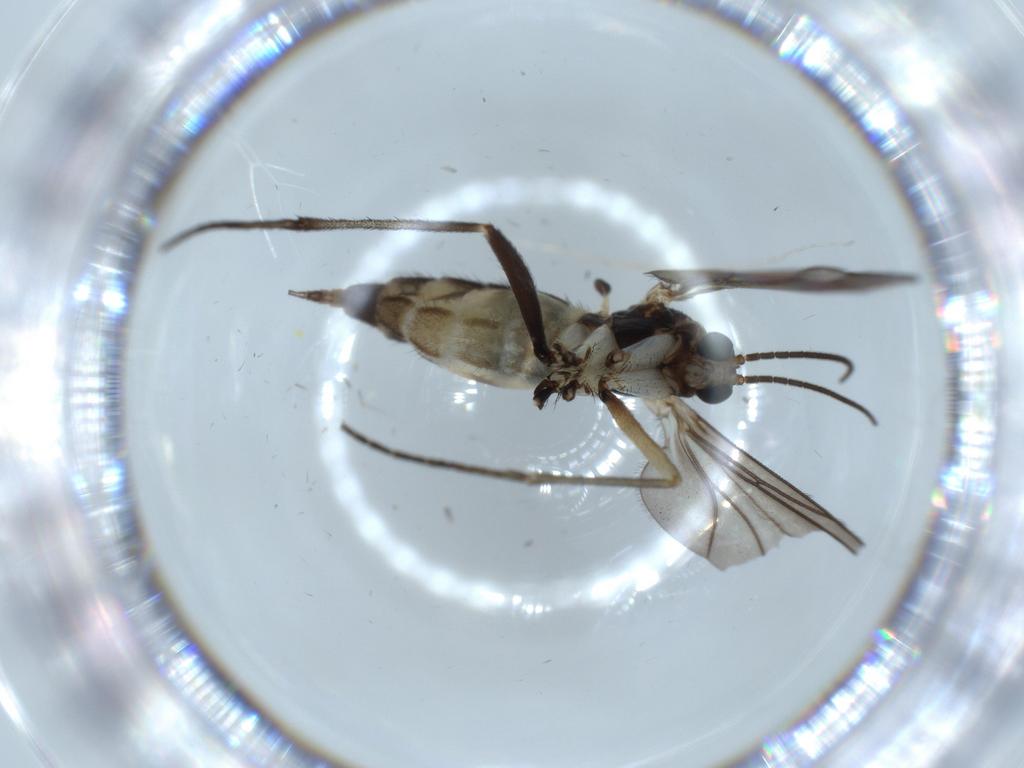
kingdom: Animalia
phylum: Arthropoda
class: Insecta
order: Diptera
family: Sciaridae
